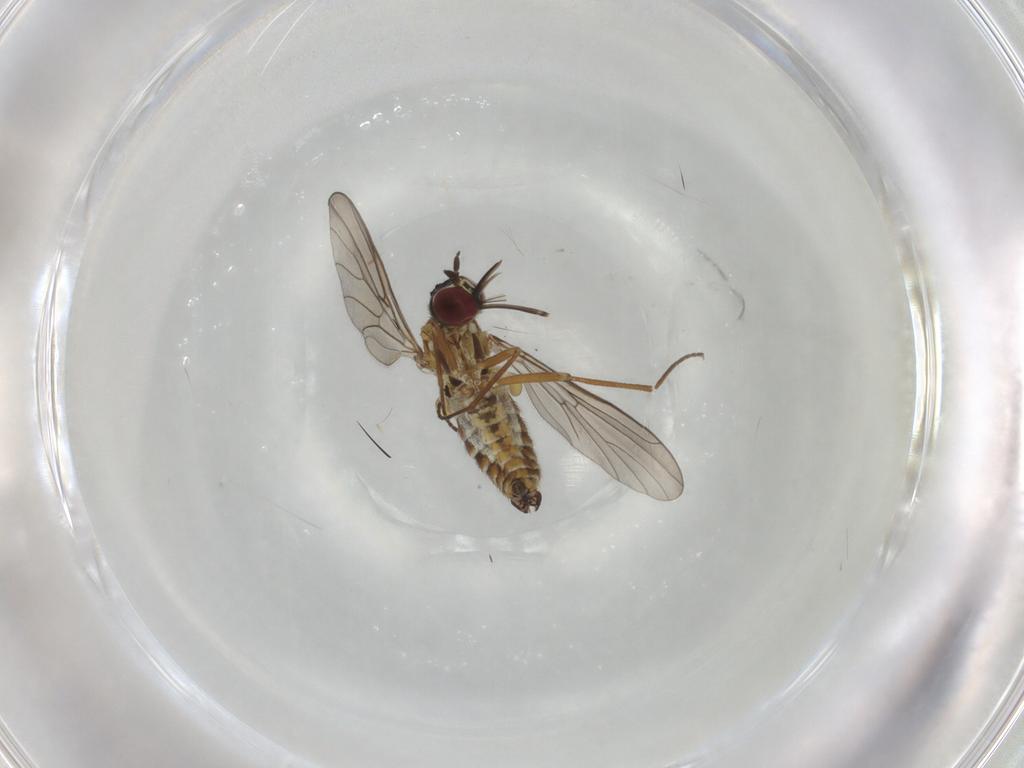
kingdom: Animalia
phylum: Arthropoda
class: Insecta
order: Diptera
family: Bombyliidae
